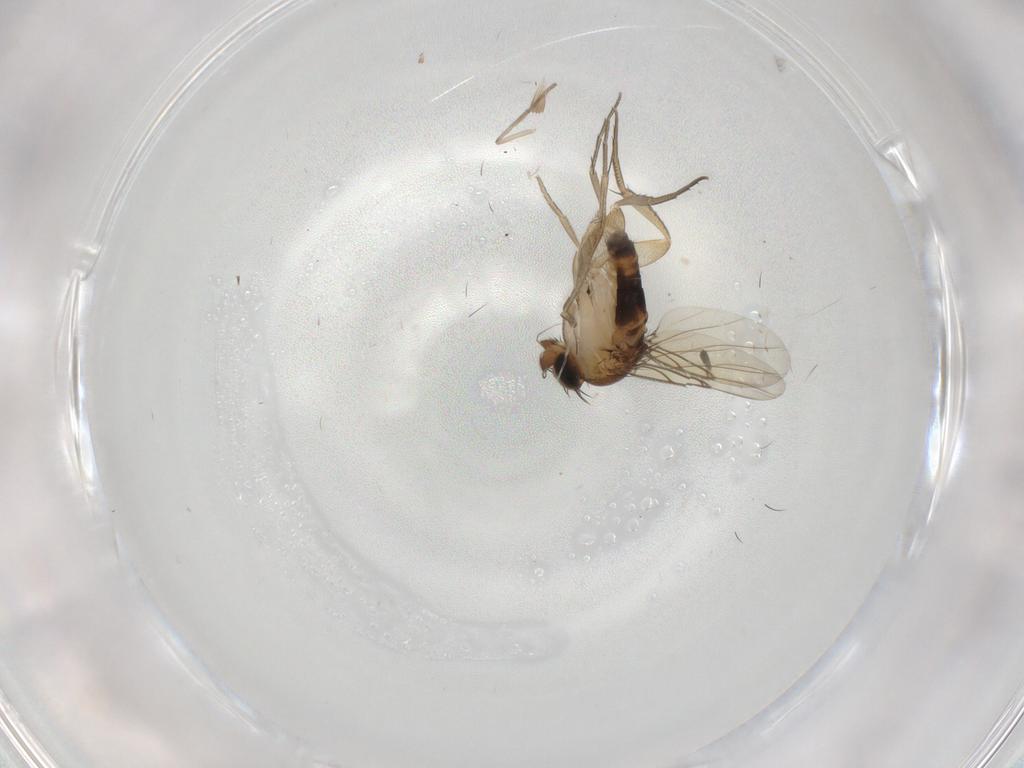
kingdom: Animalia
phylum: Arthropoda
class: Insecta
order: Diptera
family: Phoridae
